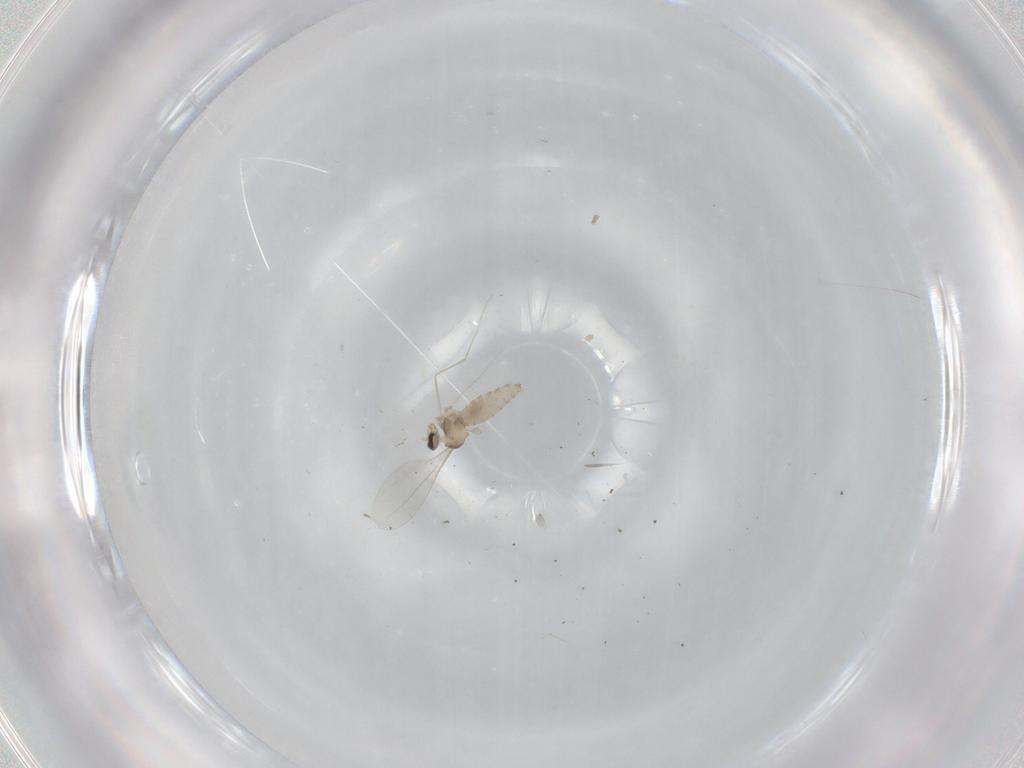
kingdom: Animalia
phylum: Arthropoda
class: Insecta
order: Diptera
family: Cecidomyiidae
